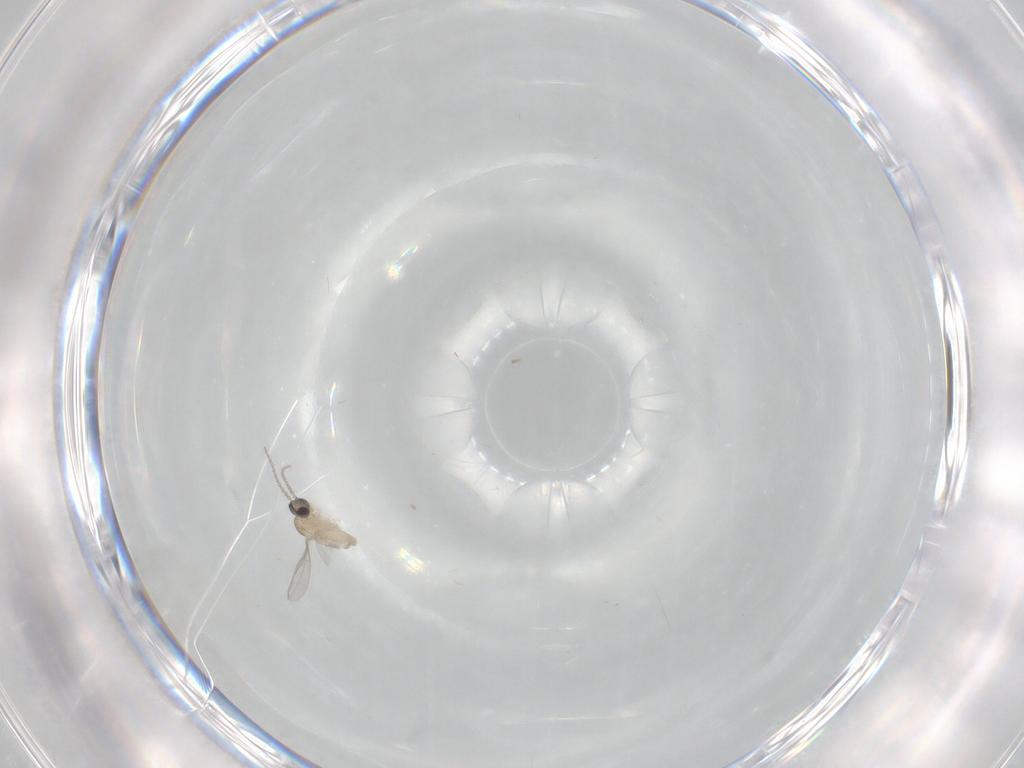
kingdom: Animalia
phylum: Arthropoda
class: Insecta
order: Diptera
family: Cecidomyiidae
